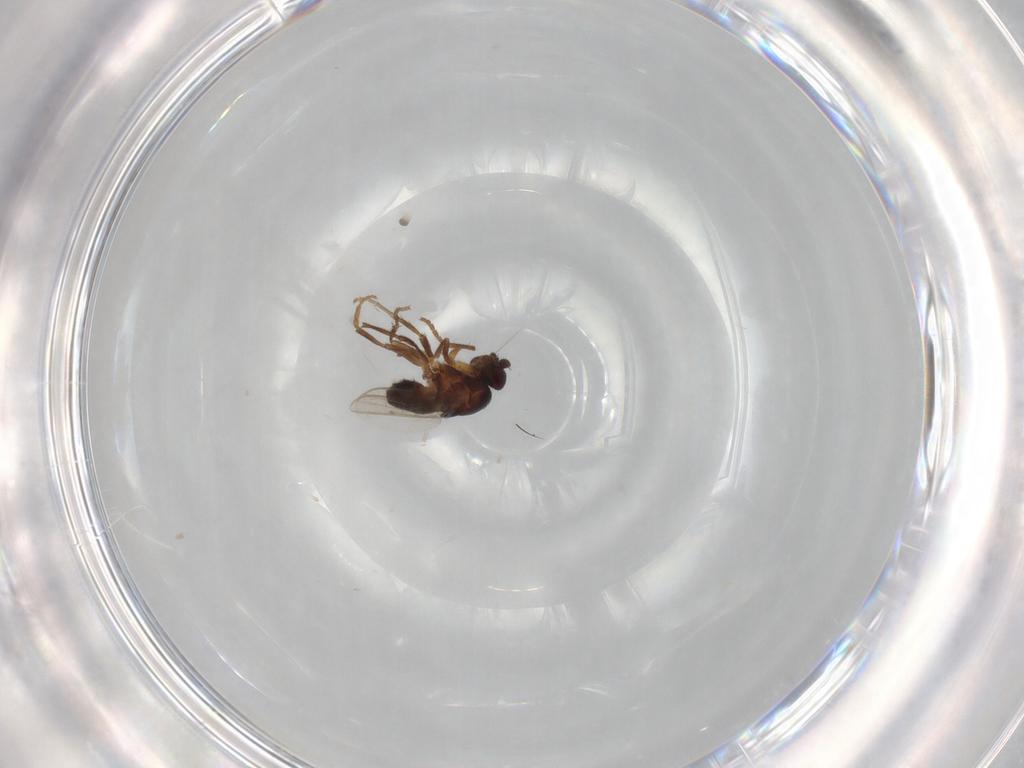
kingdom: Animalia
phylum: Arthropoda
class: Insecta
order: Diptera
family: Sphaeroceridae
